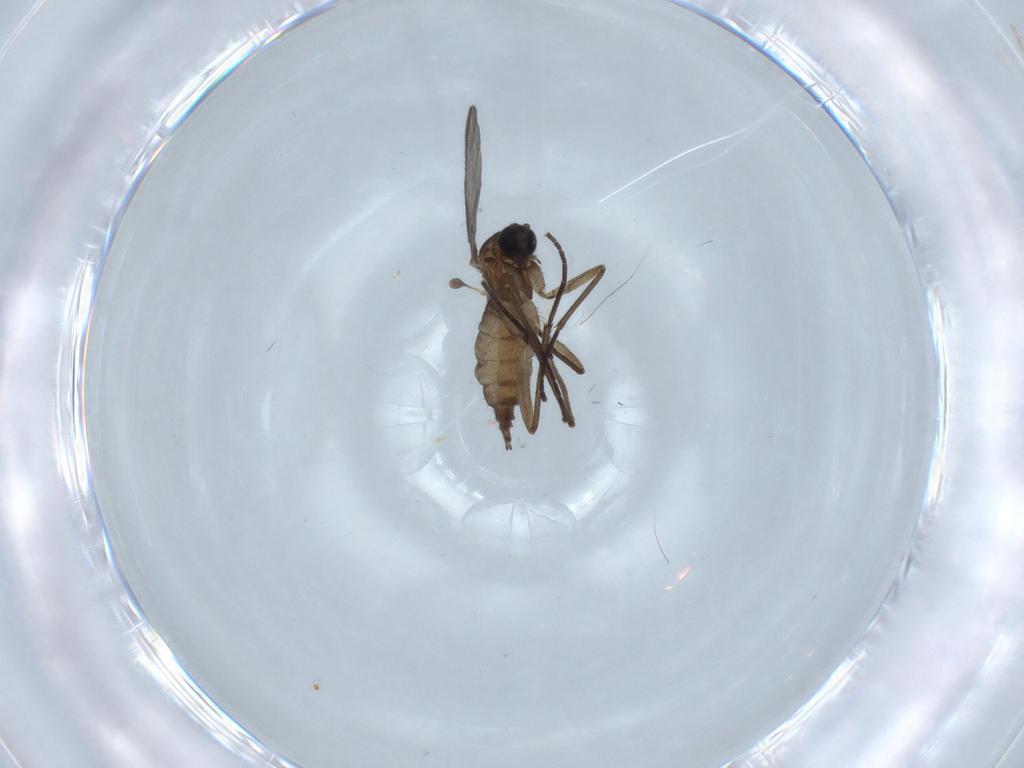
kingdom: Animalia
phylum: Arthropoda
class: Insecta
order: Diptera
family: Sciaridae
